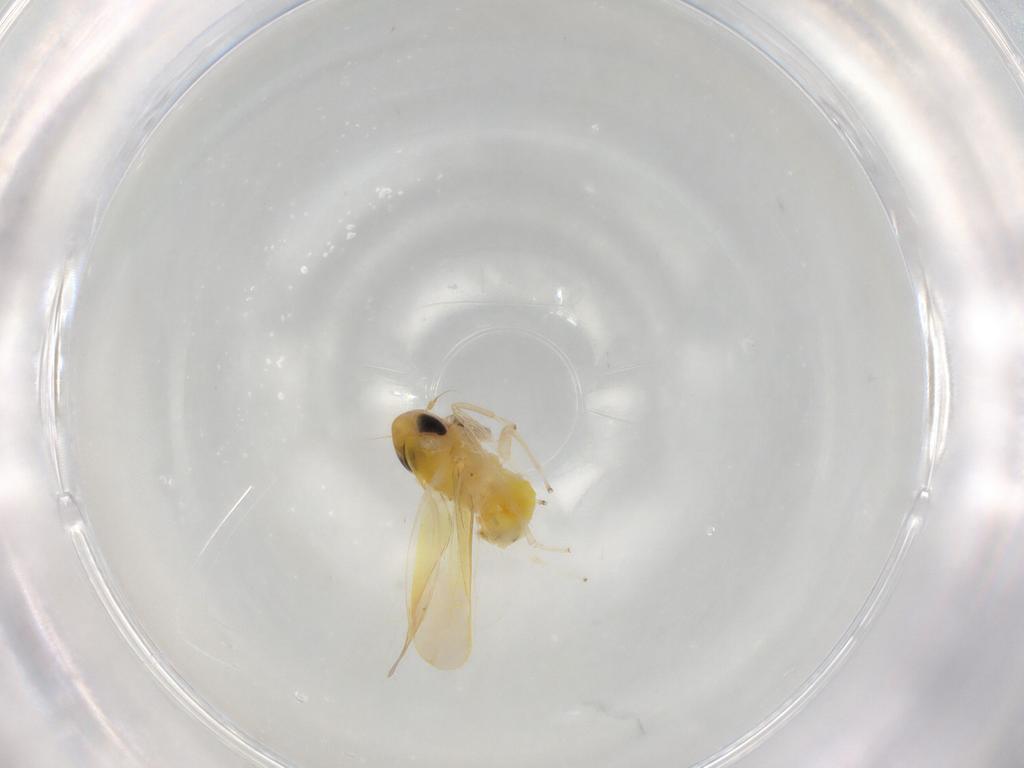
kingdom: Animalia
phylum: Arthropoda
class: Insecta
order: Hemiptera
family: Cicadellidae
